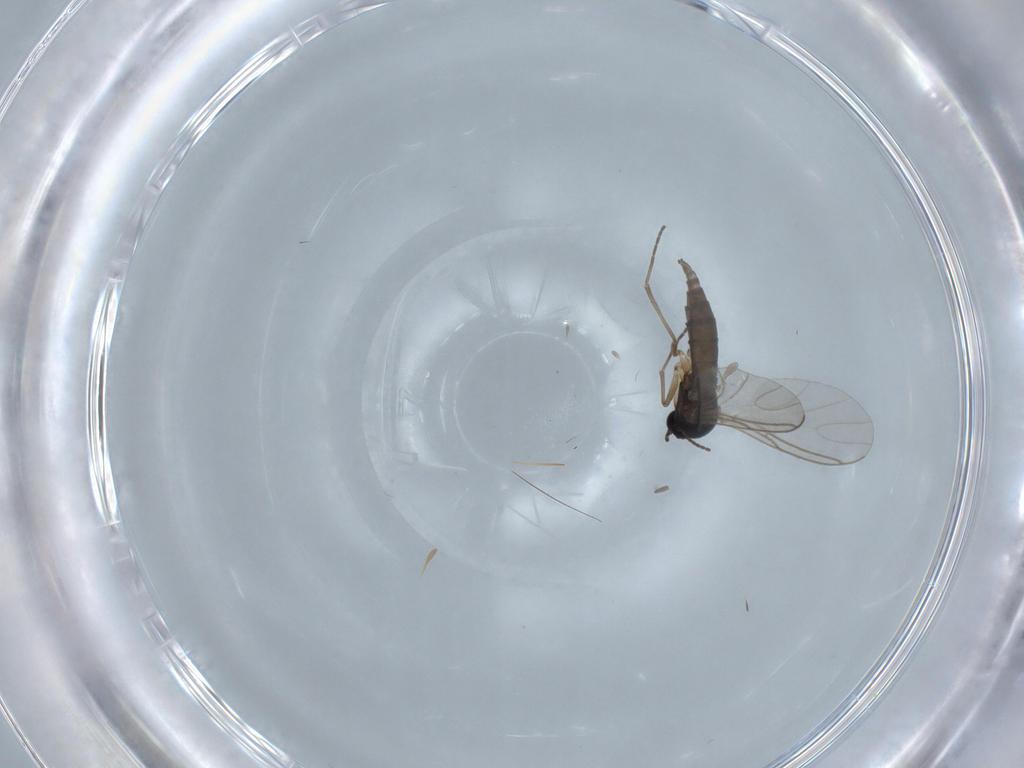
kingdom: Animalia
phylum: Arthropoda
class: Insecta
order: Diptera
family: Sciaridae
